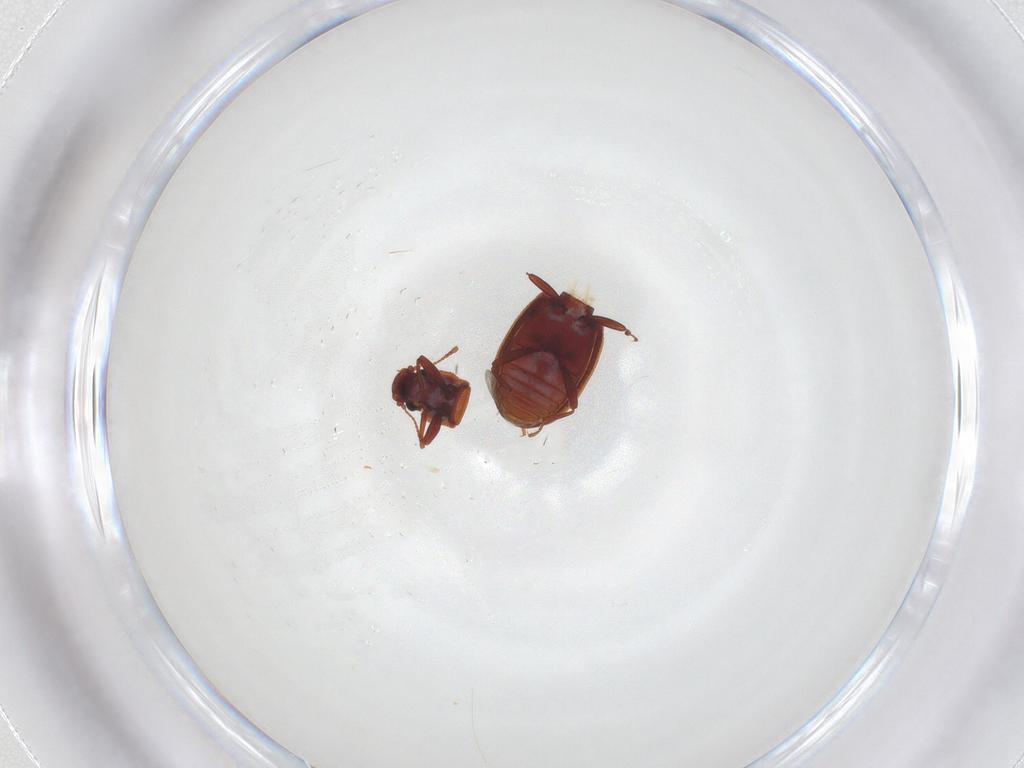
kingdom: Animalia
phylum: Arthropoda
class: Insecta
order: Coleoptera
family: Latridiidae
